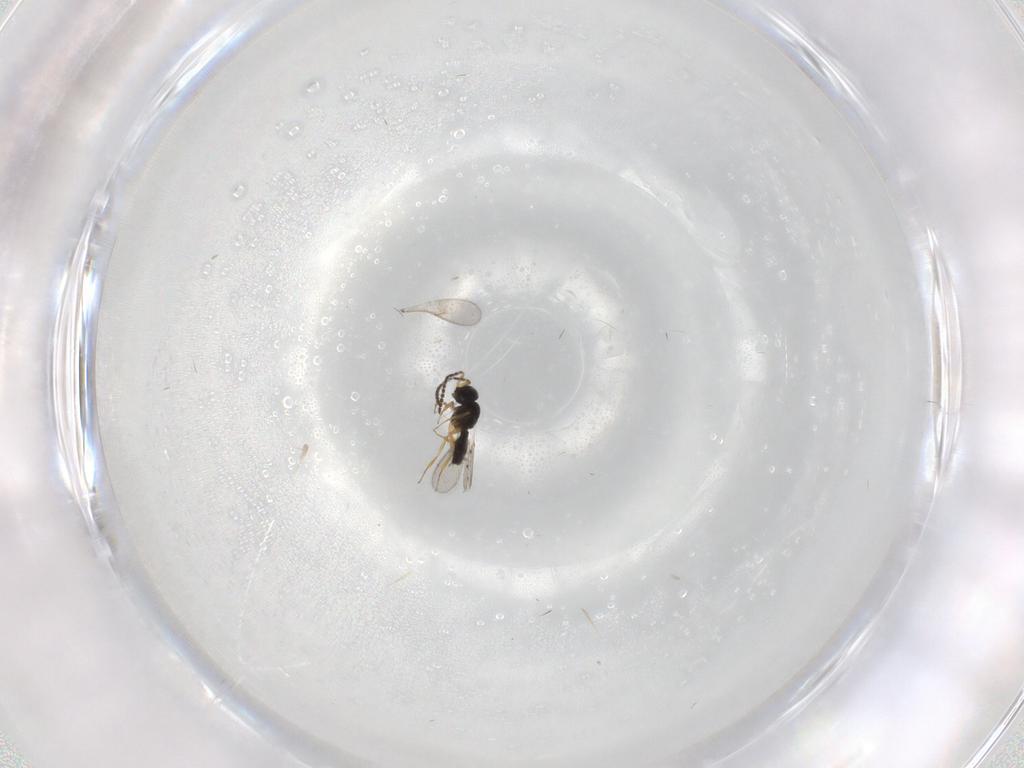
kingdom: Animalia
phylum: Arthropoda
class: Insecta
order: Hymenoptera
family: Scelionidae
